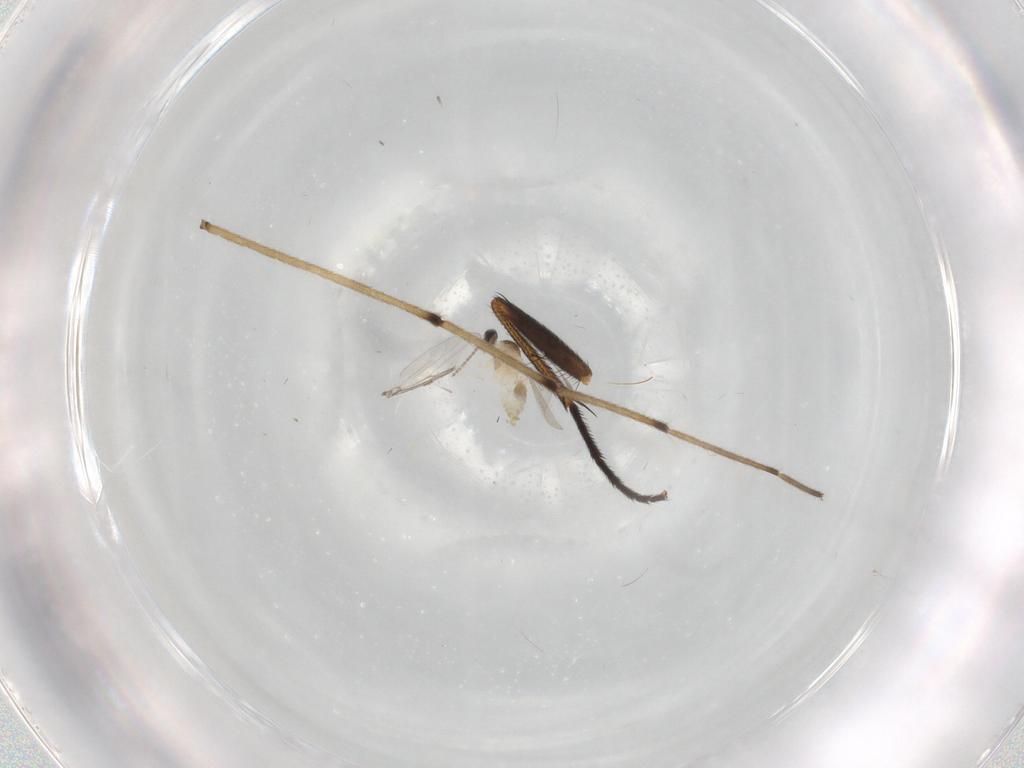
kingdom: Animalia
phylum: Arthropoda
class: Insecta
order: Diptera
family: Cecidomyiidae
